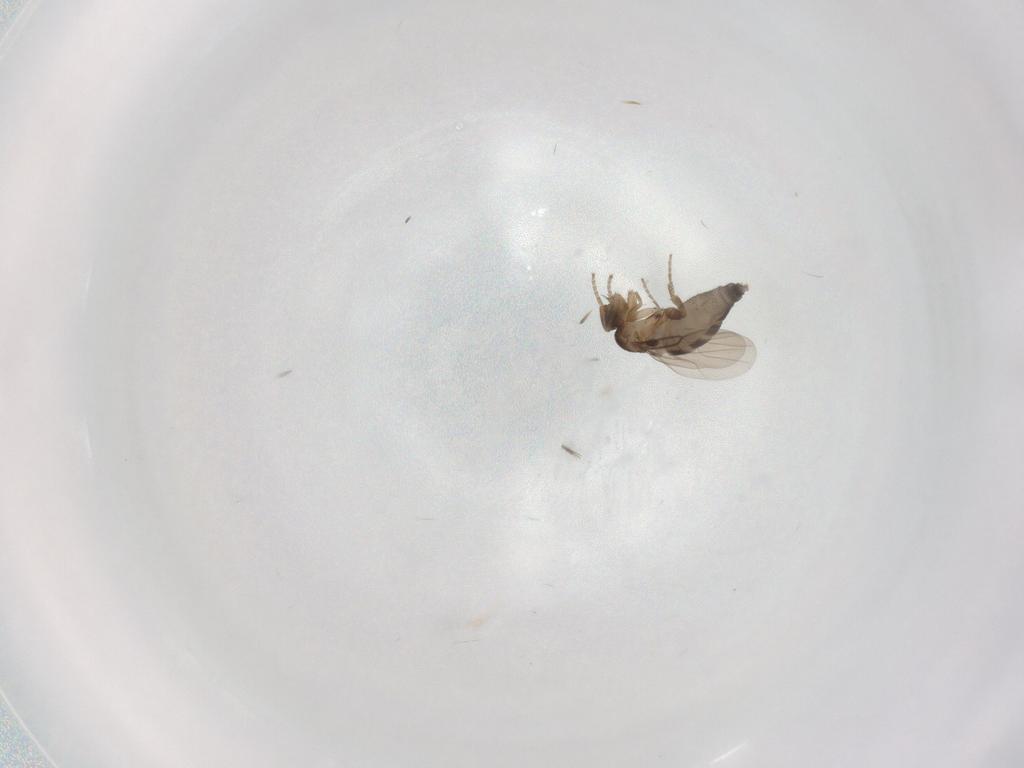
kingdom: Animalia
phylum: Arthropoda
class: Insecta
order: Diptera
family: Phoridae
